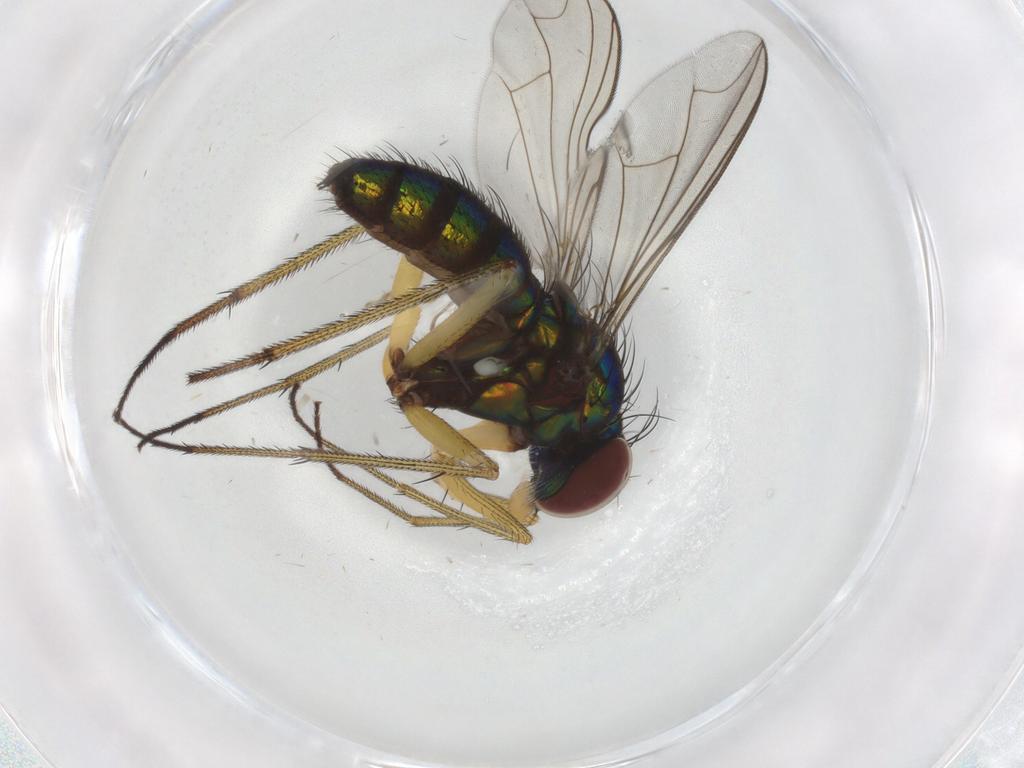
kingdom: Animalia
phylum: Arthropoda
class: Insecta
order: Diptera
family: Dolichopodidae
